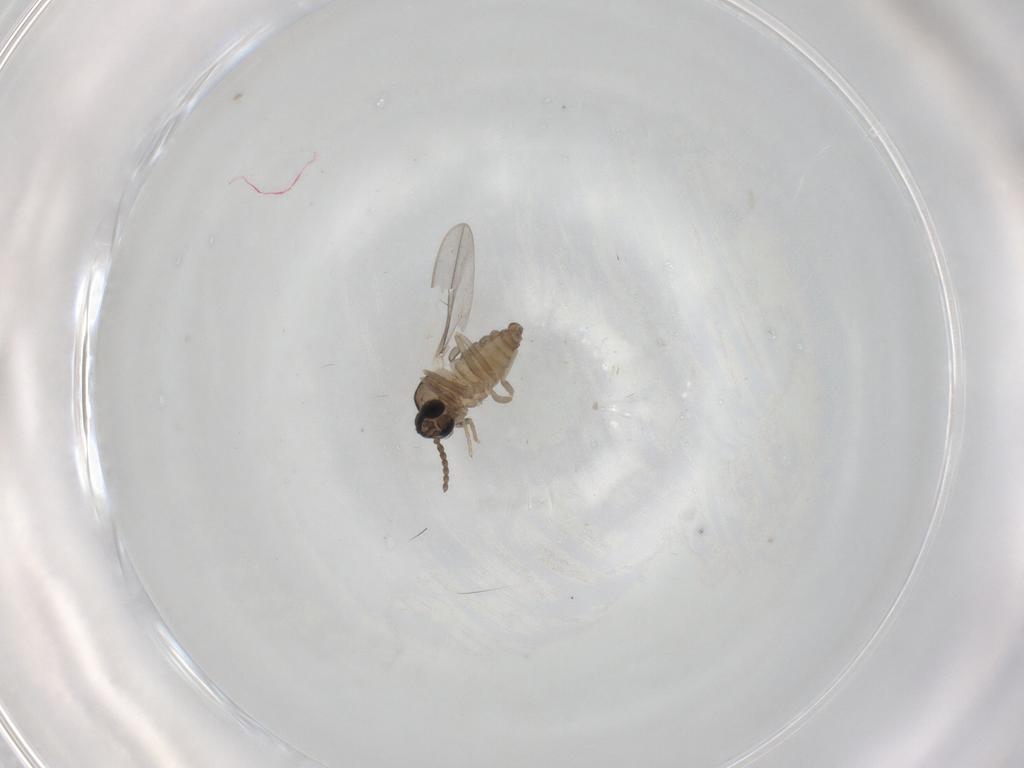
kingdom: Animalia
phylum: Arthropoda
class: Insecta
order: Diptera
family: Cecidomyiidae
